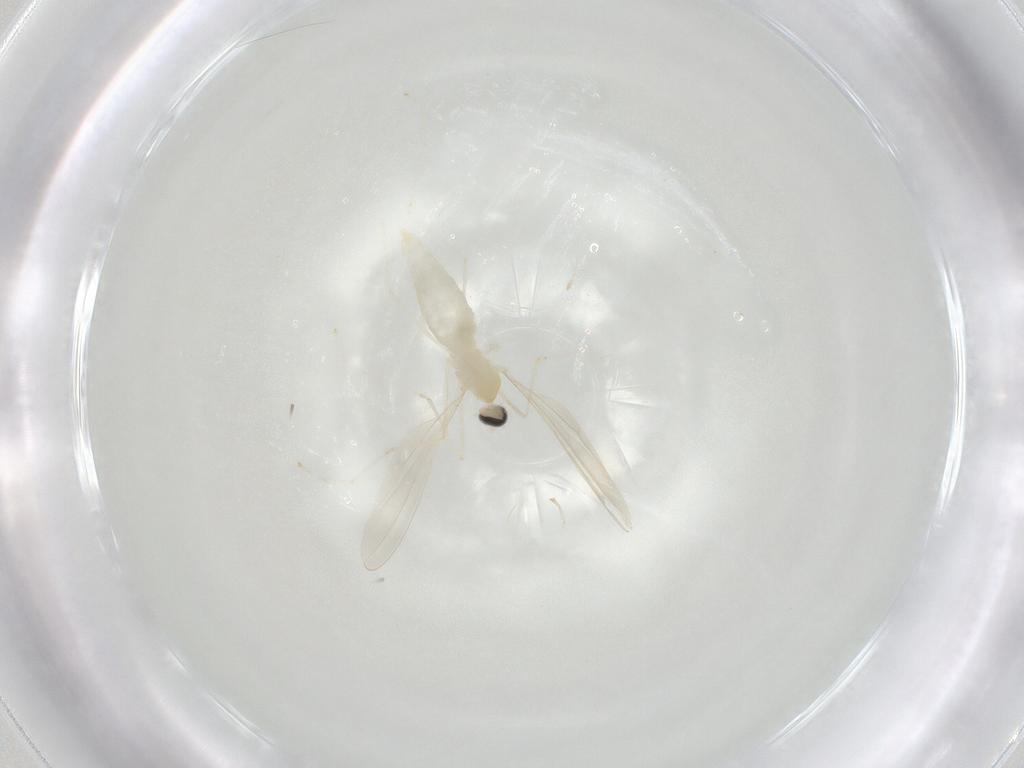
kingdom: Animalia
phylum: Arthropoda
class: Insecta
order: Diptera
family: Cecidomyiidae
